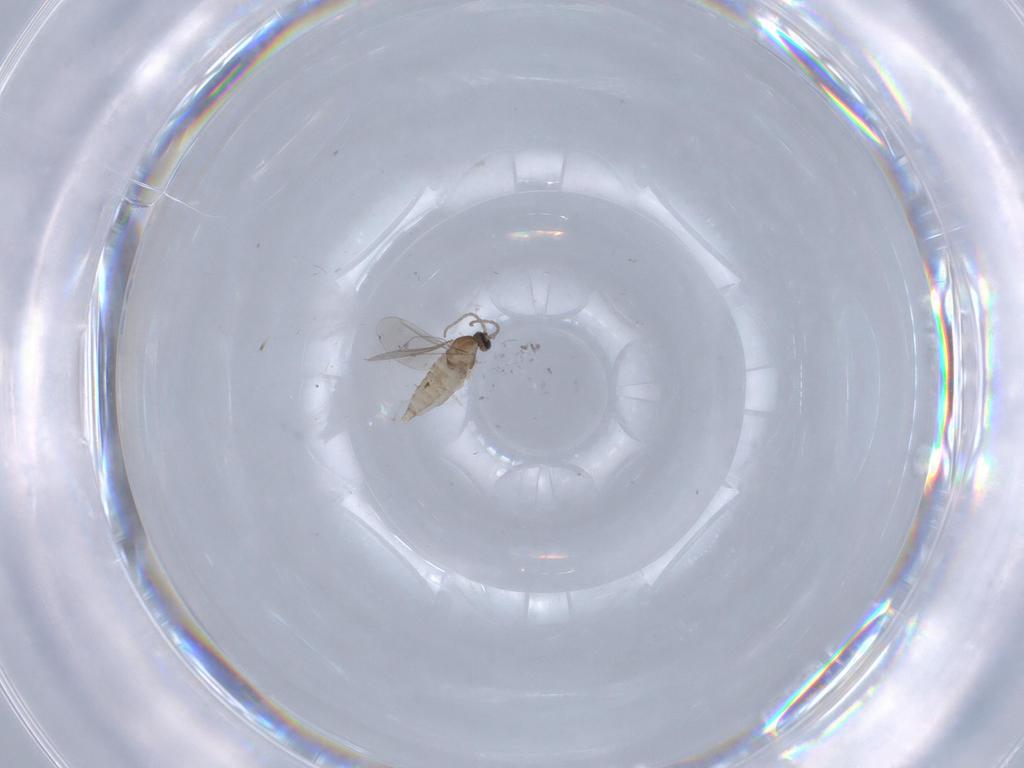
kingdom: Animalia
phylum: Arthropoda
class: Insecta
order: Diptera
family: Cecidomyiidae
